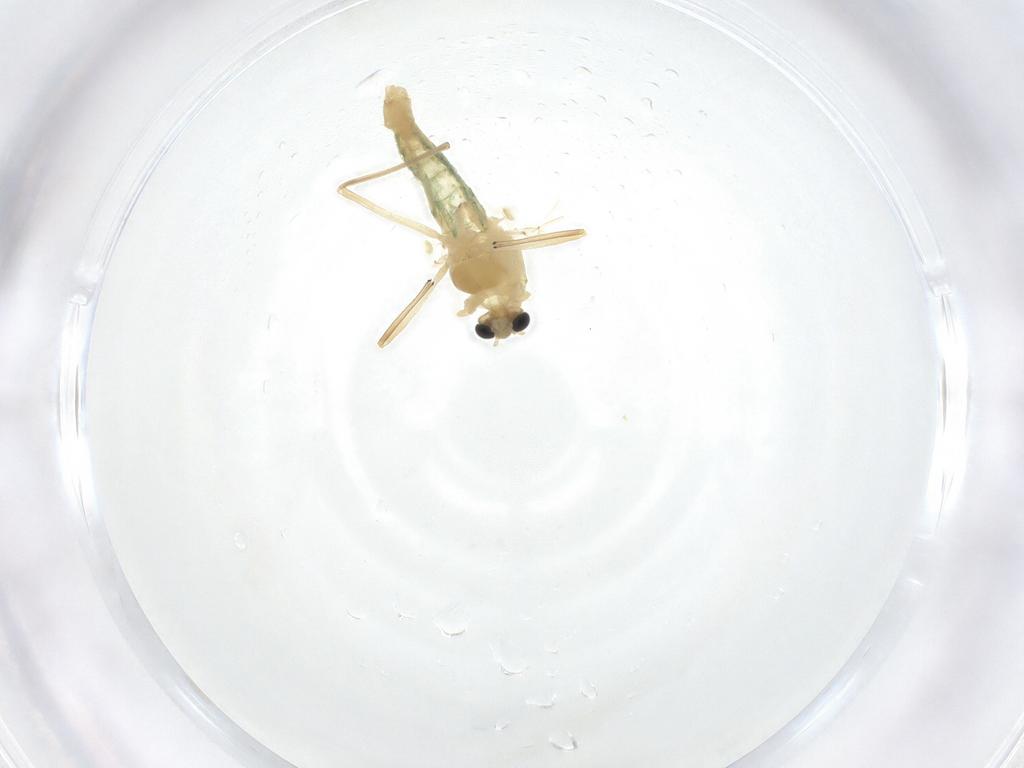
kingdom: Animalia
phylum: Arthropoda
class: Insecta
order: Diptera
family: Chironomidae
